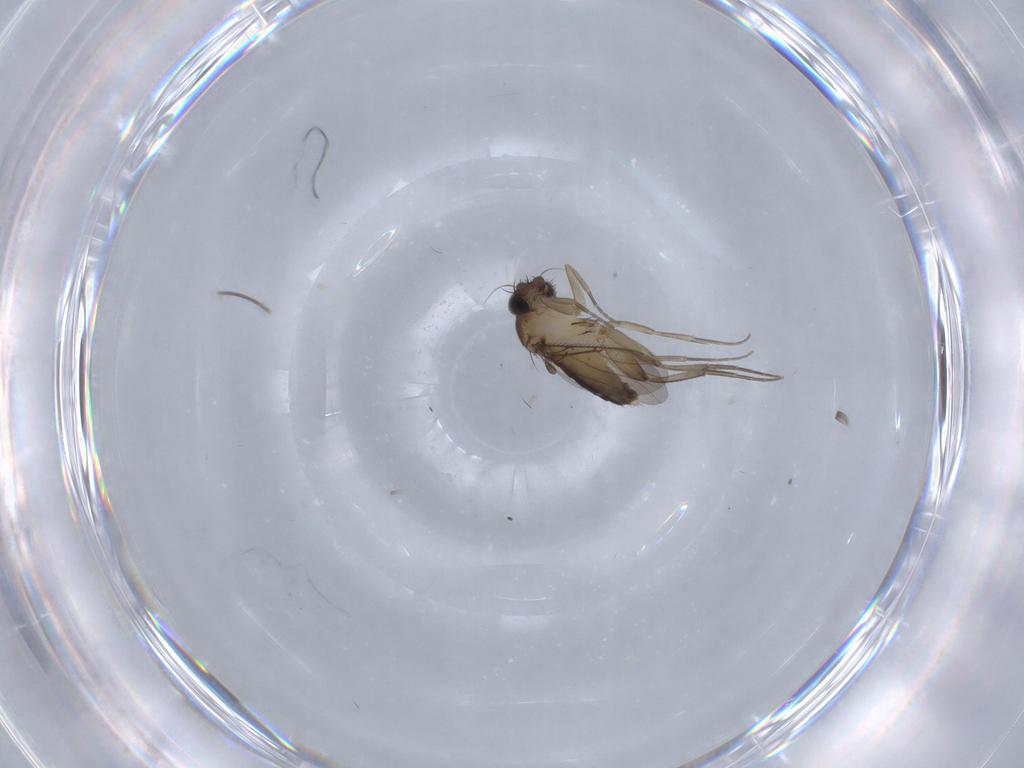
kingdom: Animalia
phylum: Arthropoda
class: Insecta
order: Diptera
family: Phoridae
